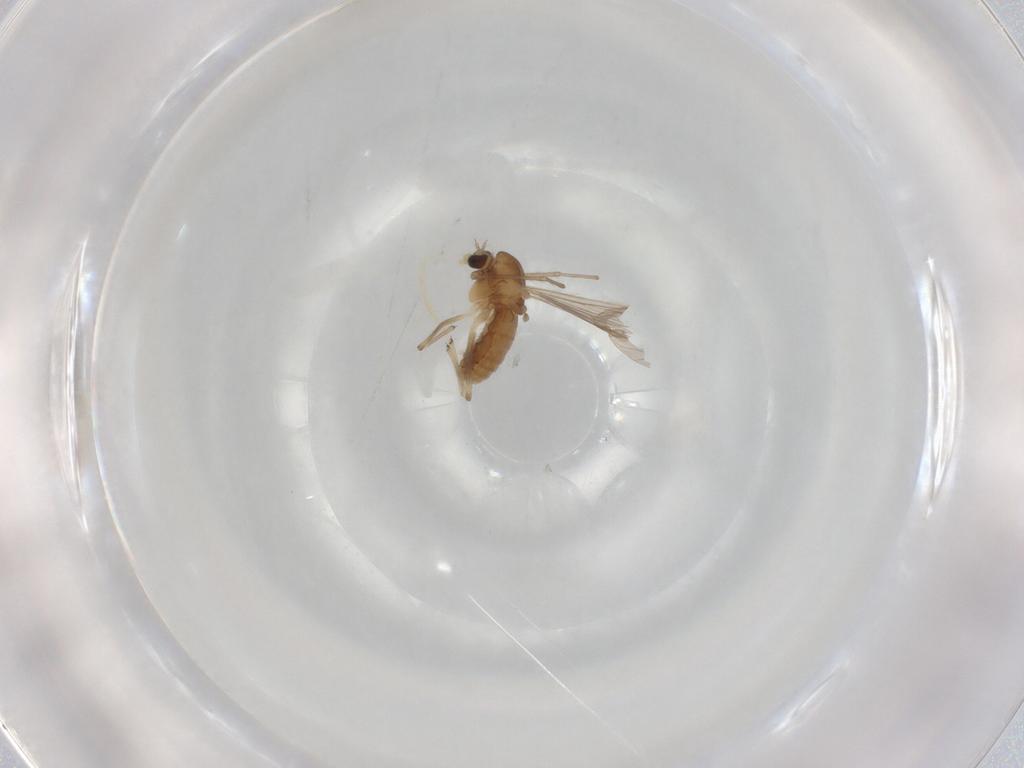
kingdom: Animalia
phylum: Arthropoda
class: Insecta
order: Diptera
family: Chironomidae
